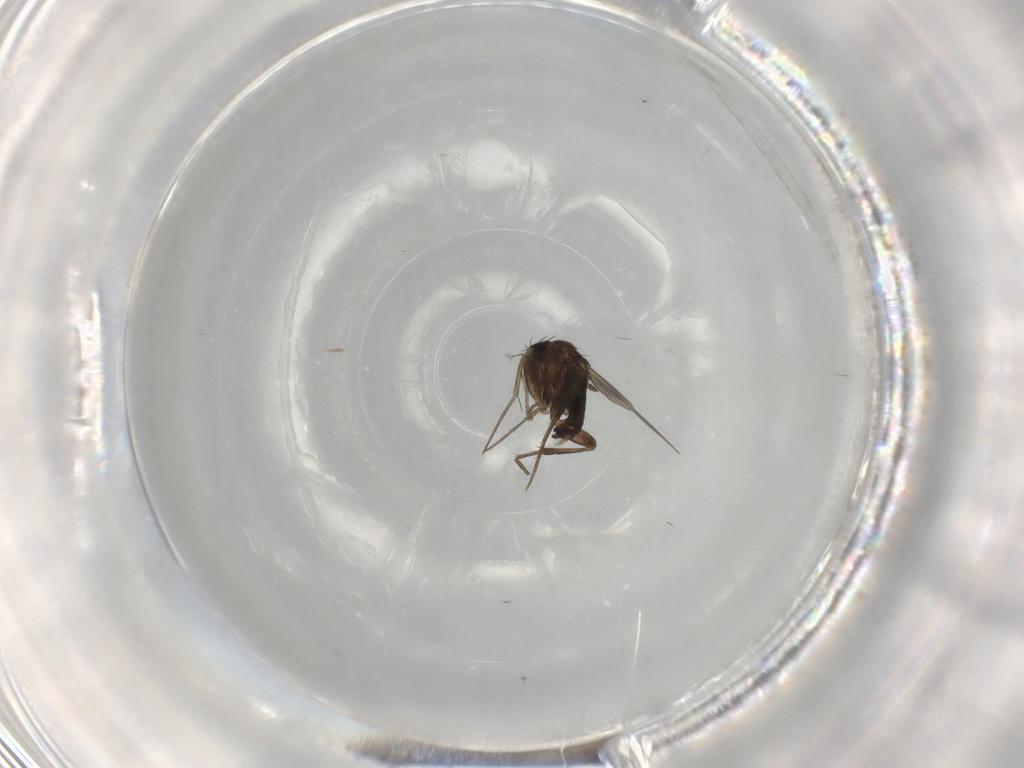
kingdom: Animalia
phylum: Arthropoda
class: Insecta
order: Diptera
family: Phoridae
